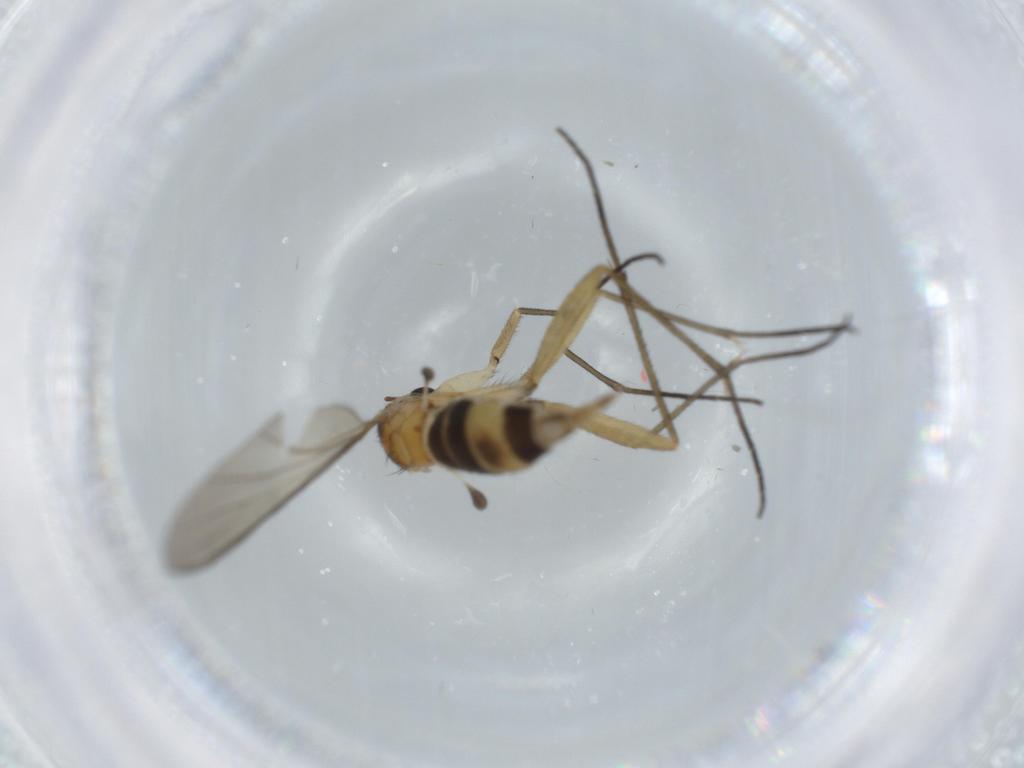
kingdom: Animalia
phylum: Arthropoda
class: Insecta
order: Diptera
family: Sciaridae
